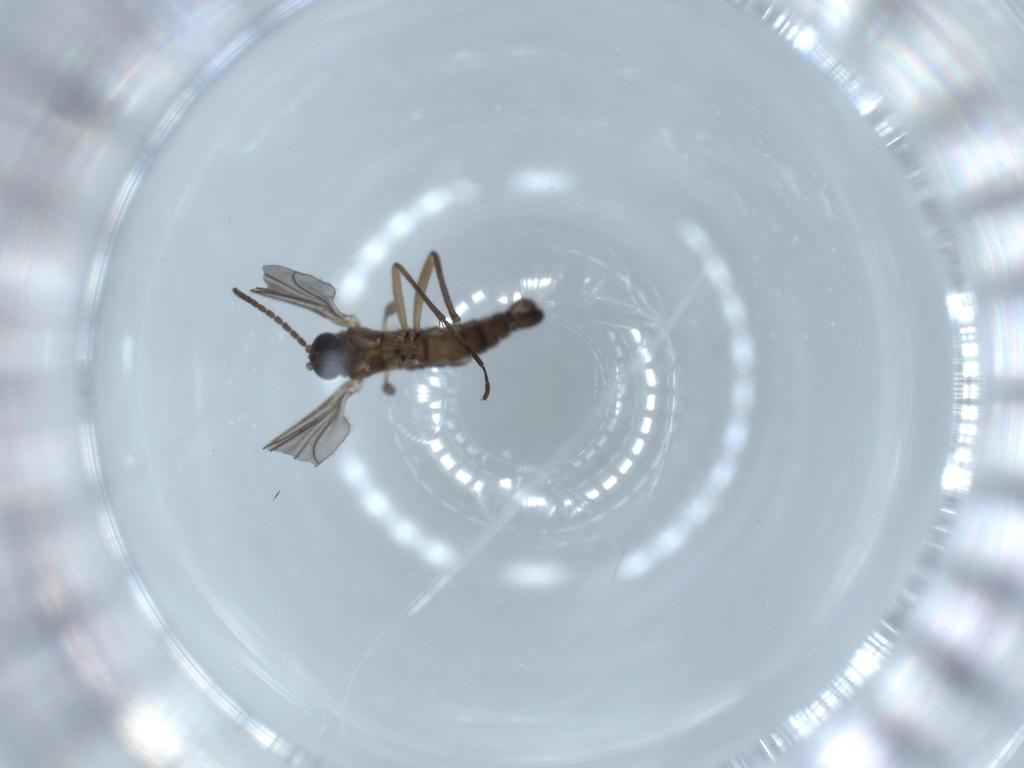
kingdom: Animalia
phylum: Arthropoda
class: Insecta
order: Diptera
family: Sciaridae
